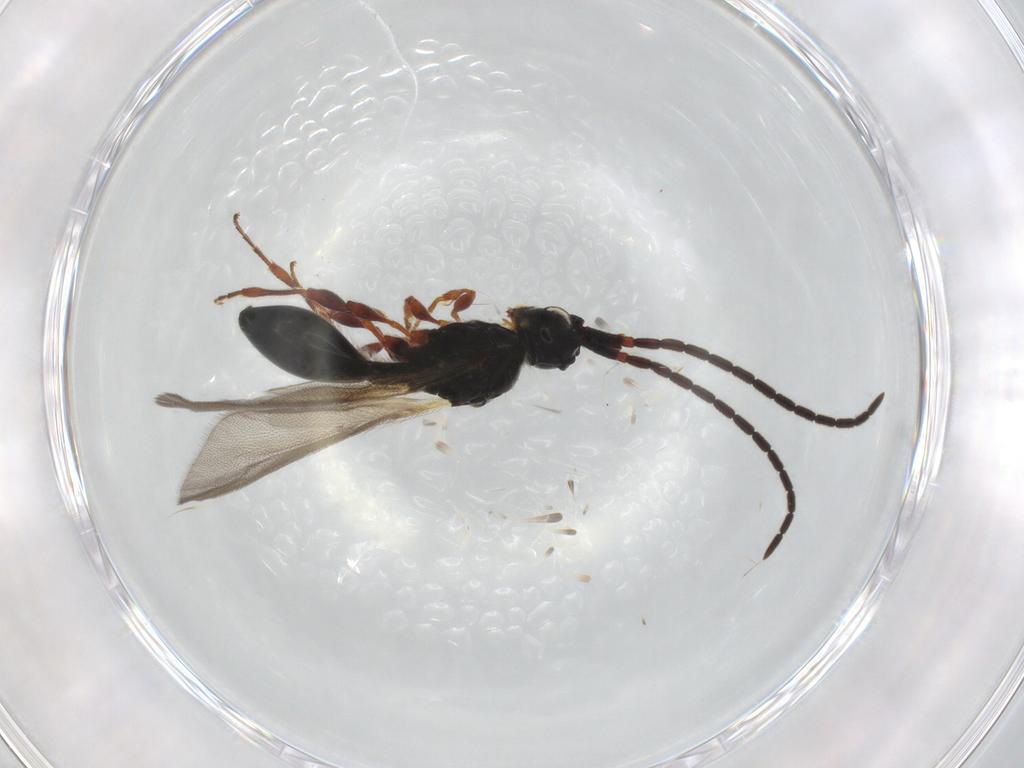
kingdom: Animalia
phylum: Arthropoda
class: Insecta
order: Hymenoptera
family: Diapriidae
